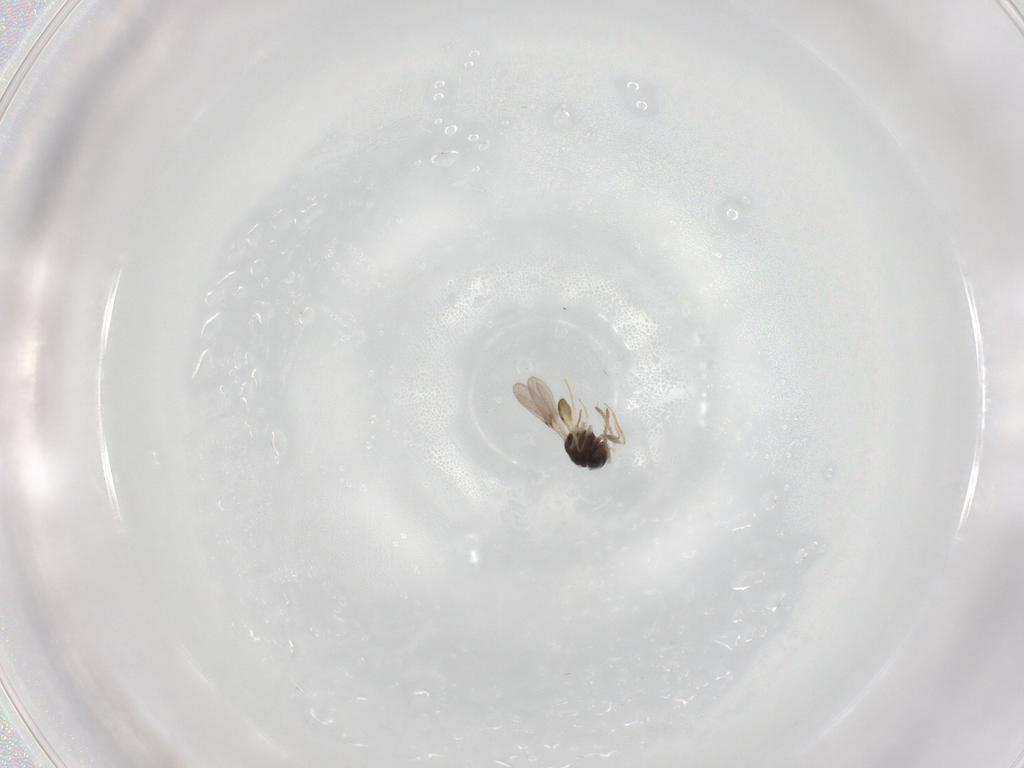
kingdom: Animalia
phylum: Arthropoda
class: Insecta
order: Hymenoptera
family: Scelionidae
